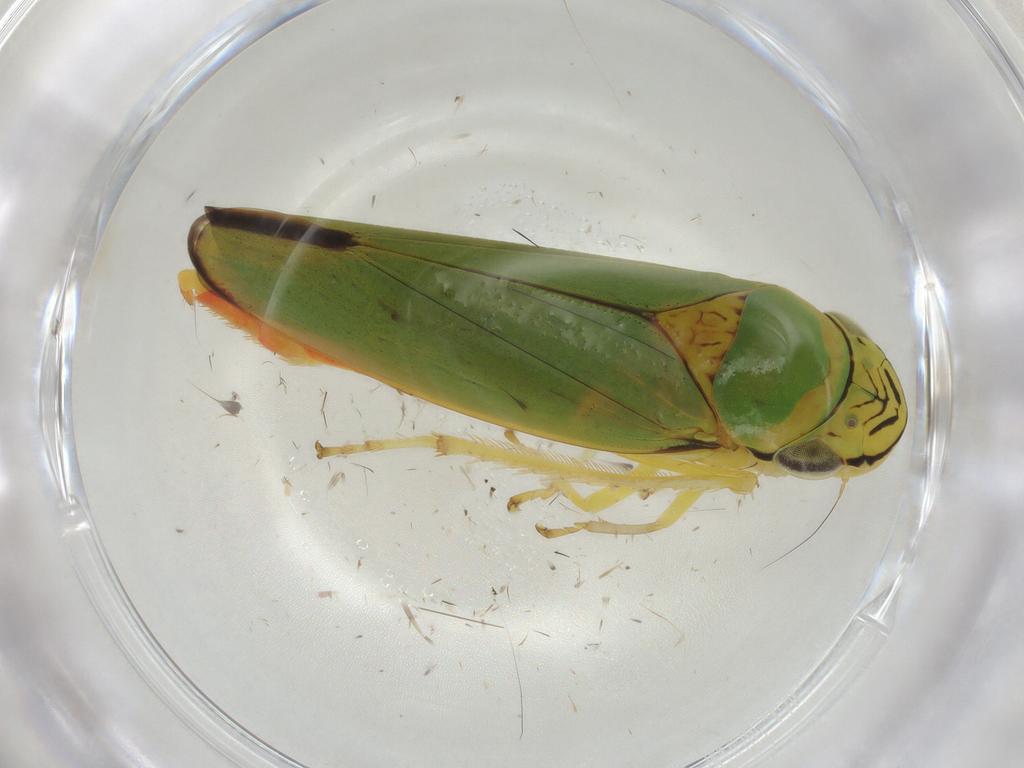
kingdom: Animalia
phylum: Arthropoda
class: Insecta
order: Hemiptera
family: Cicadellidae
